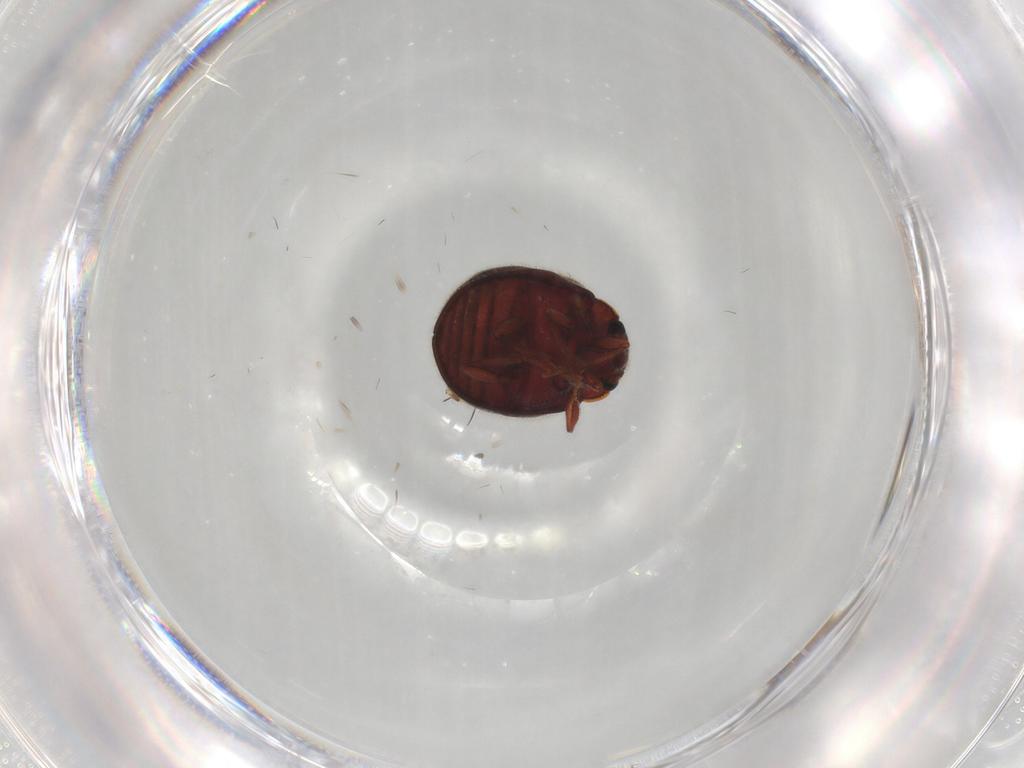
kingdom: Animalia
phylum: Arthropoda
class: Insecta
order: Coleoptera
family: Sphindidae
